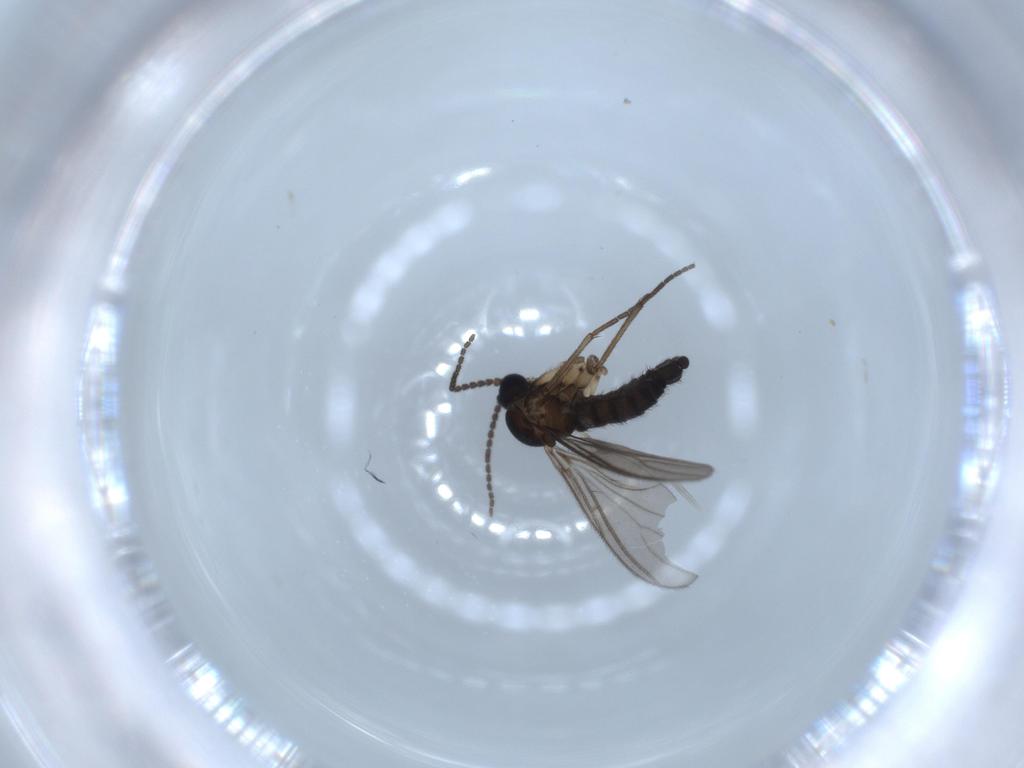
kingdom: Animalia
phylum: Arthropoda
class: Insecta
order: Diptera
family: Sciaridae
